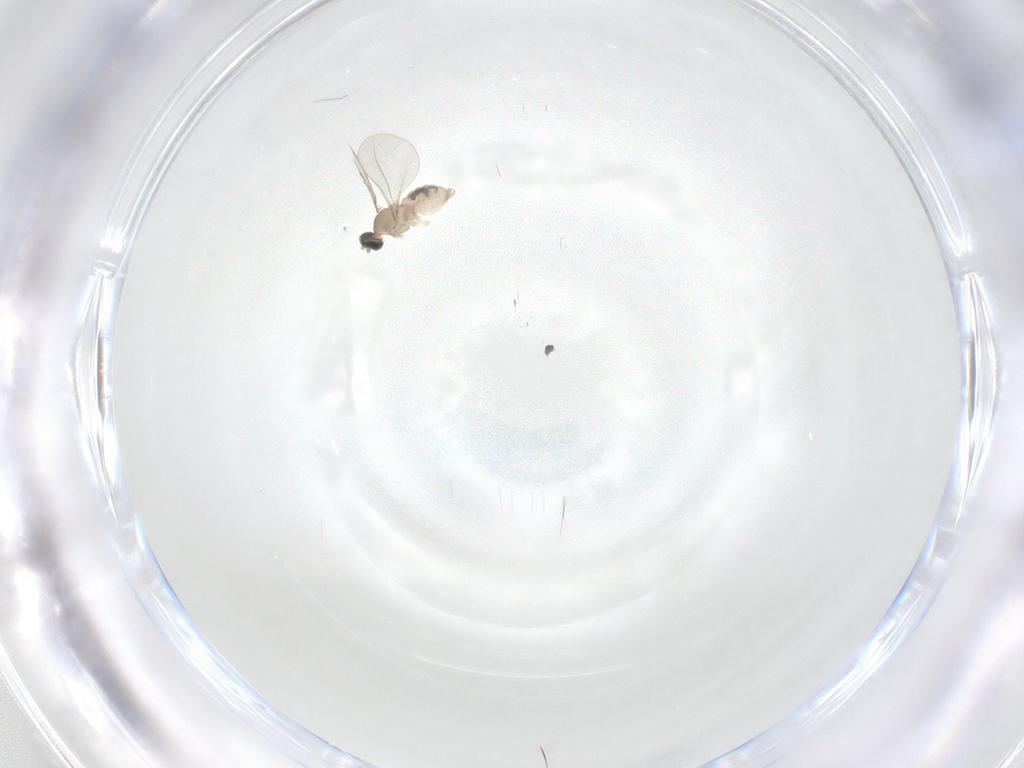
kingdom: Animalia
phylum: Arthropoda
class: Insecta
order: Diptera
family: Cecidomyiidae
